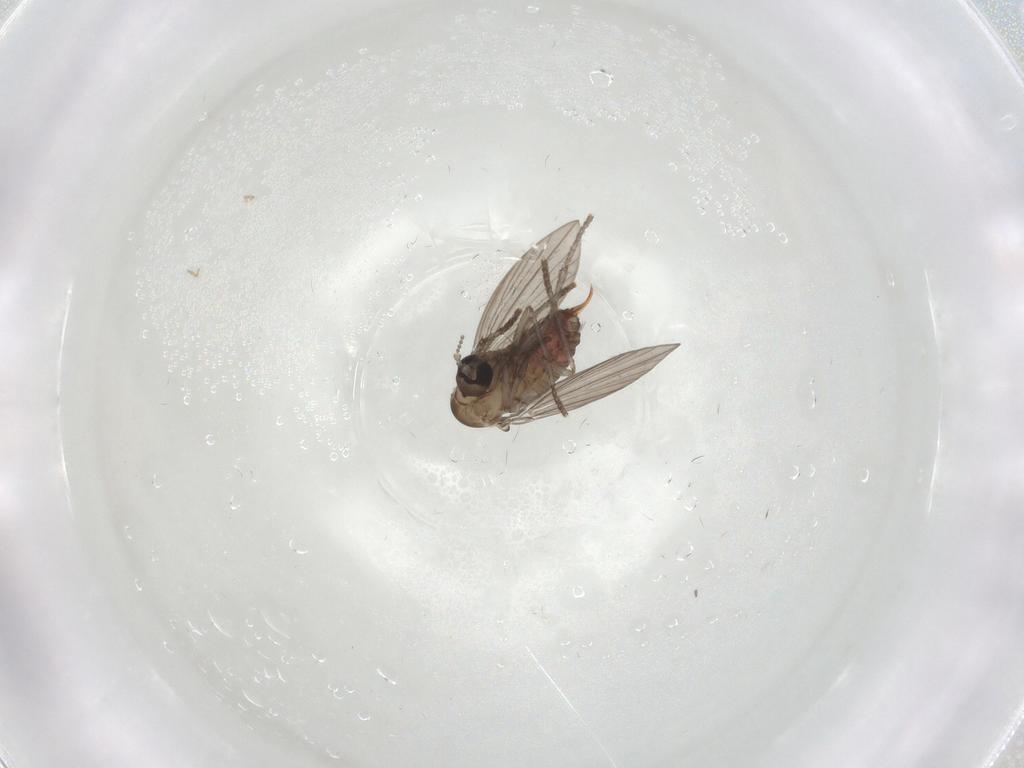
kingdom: Animalia
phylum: Arthropoda
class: Insecta
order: Diptera
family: Psychodidae
